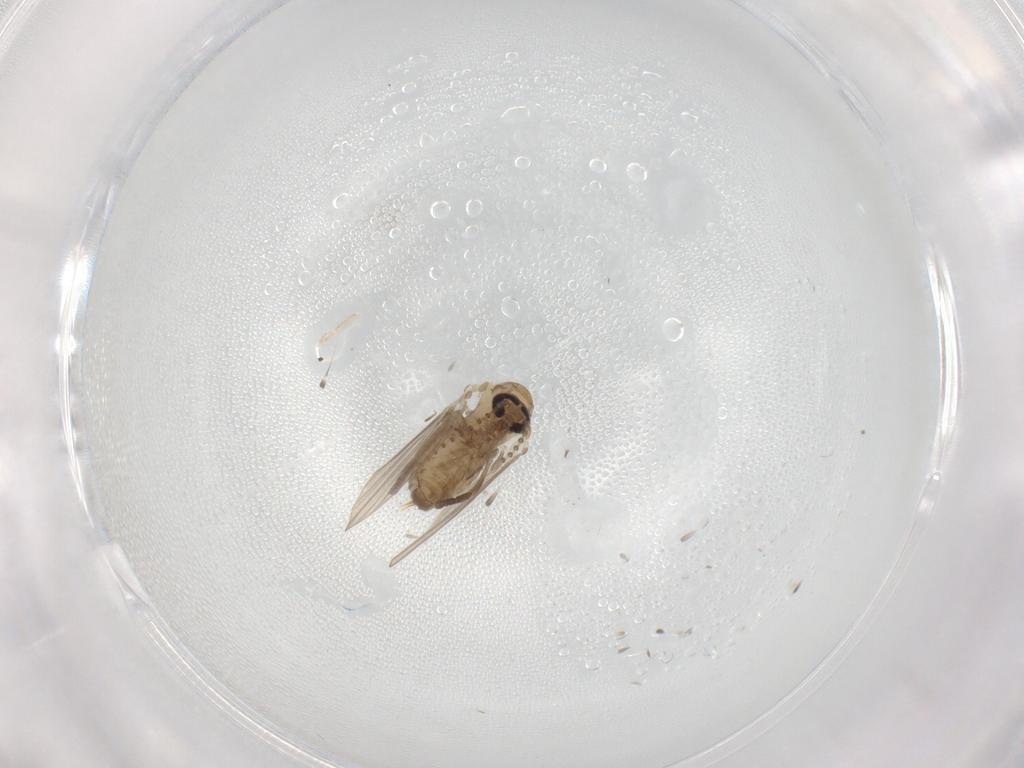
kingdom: Animalia
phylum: Arthropoda
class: Insecta
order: Diptera
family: Psychodidae
